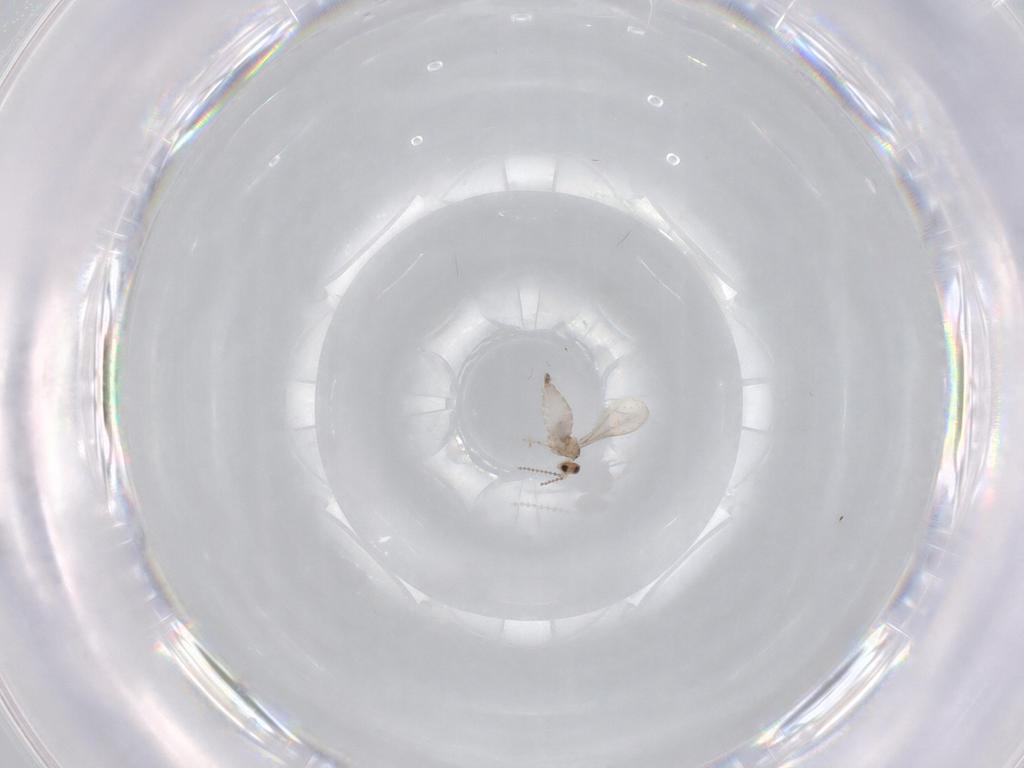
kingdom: Animalia
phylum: Arthropoda
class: Insecta
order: Diptera
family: Cecidomyiidae
